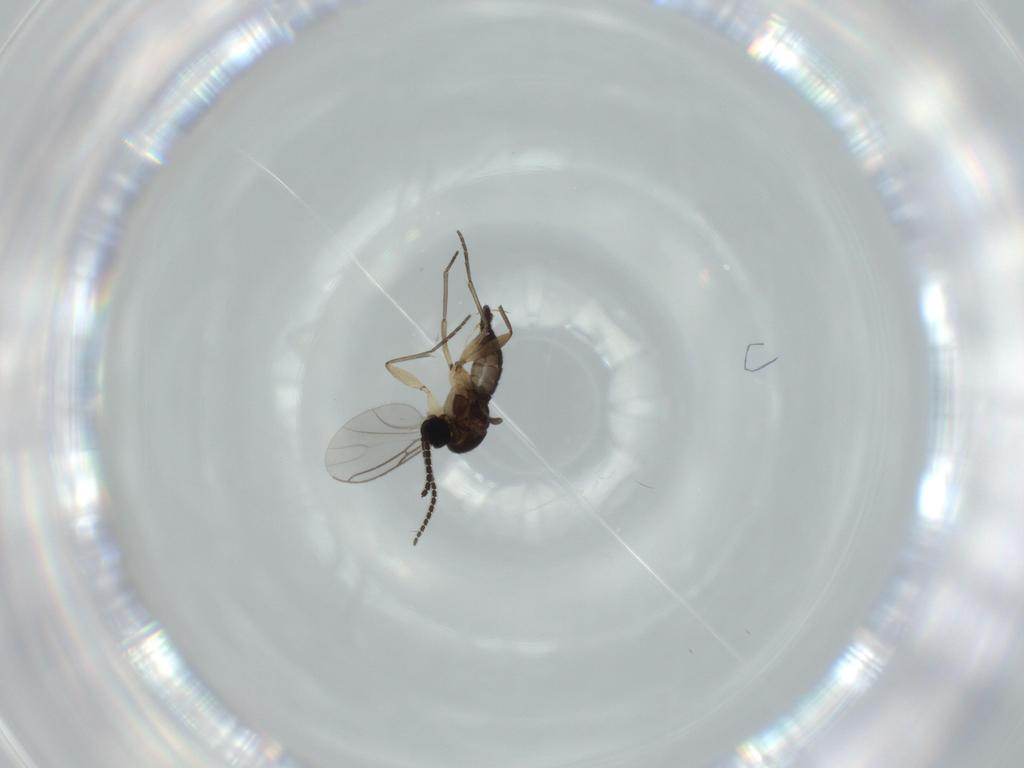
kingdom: Animalia
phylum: Arthropoda
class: Insecta
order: Diptera
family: Sciaridae
